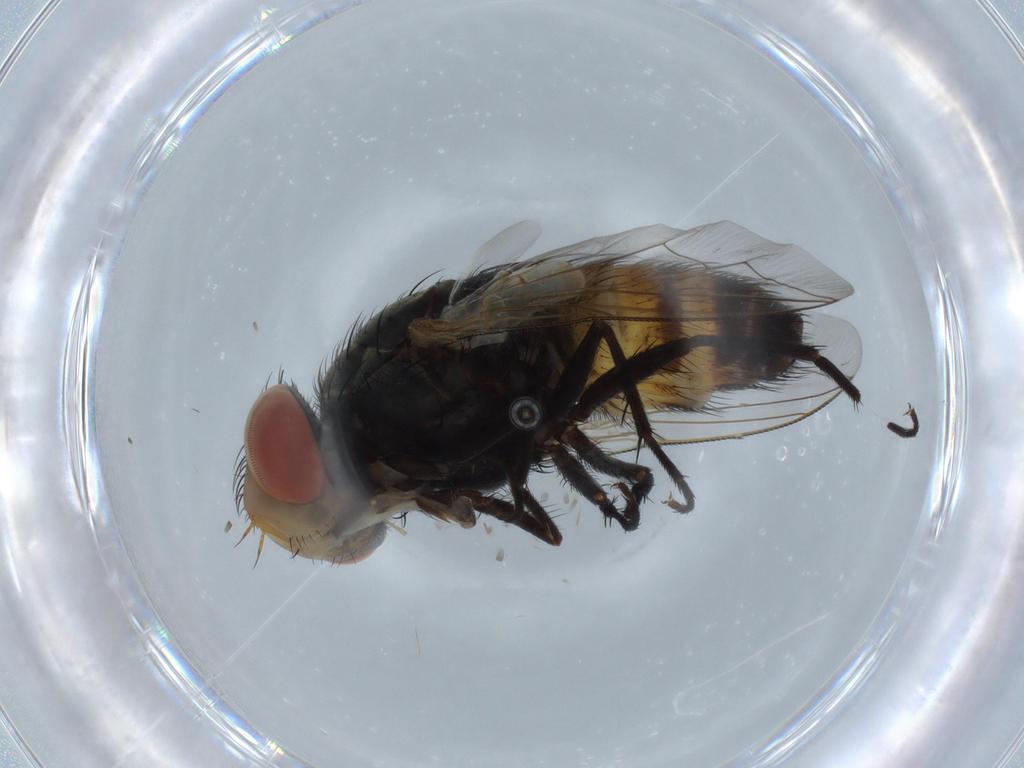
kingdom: Animalia
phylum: Arthropoda
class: Insecta
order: Diptera
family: Sarcophagidae
